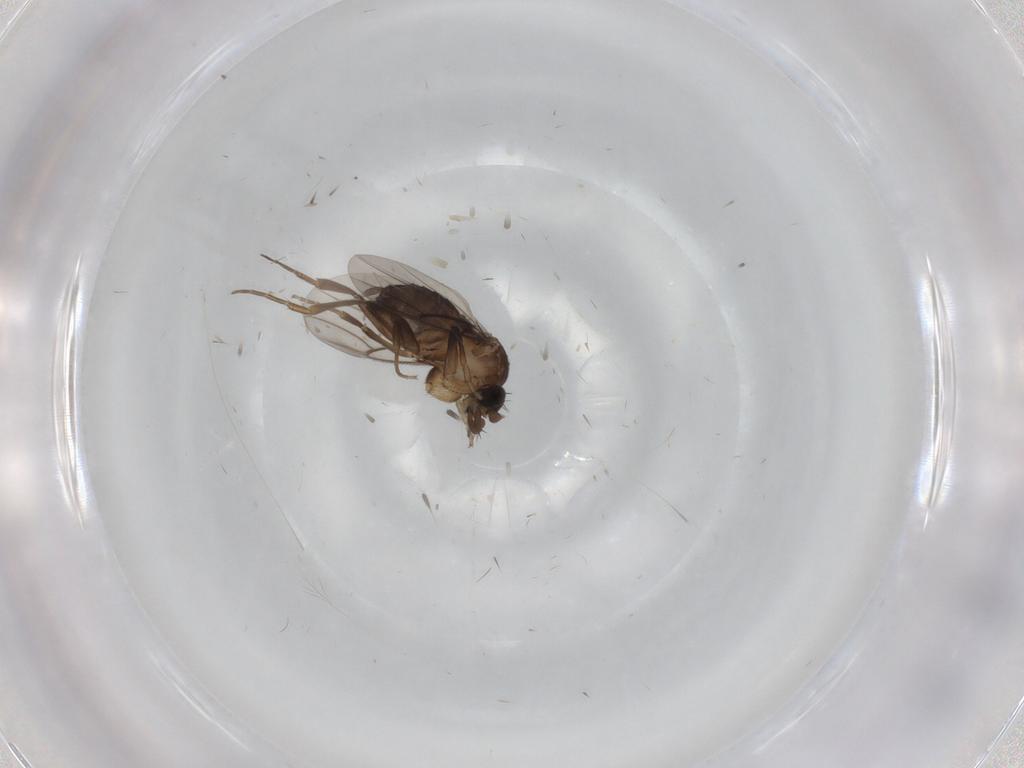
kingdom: Animalia
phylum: Arthropoda
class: Insecta
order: Diptera
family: Phoridae
